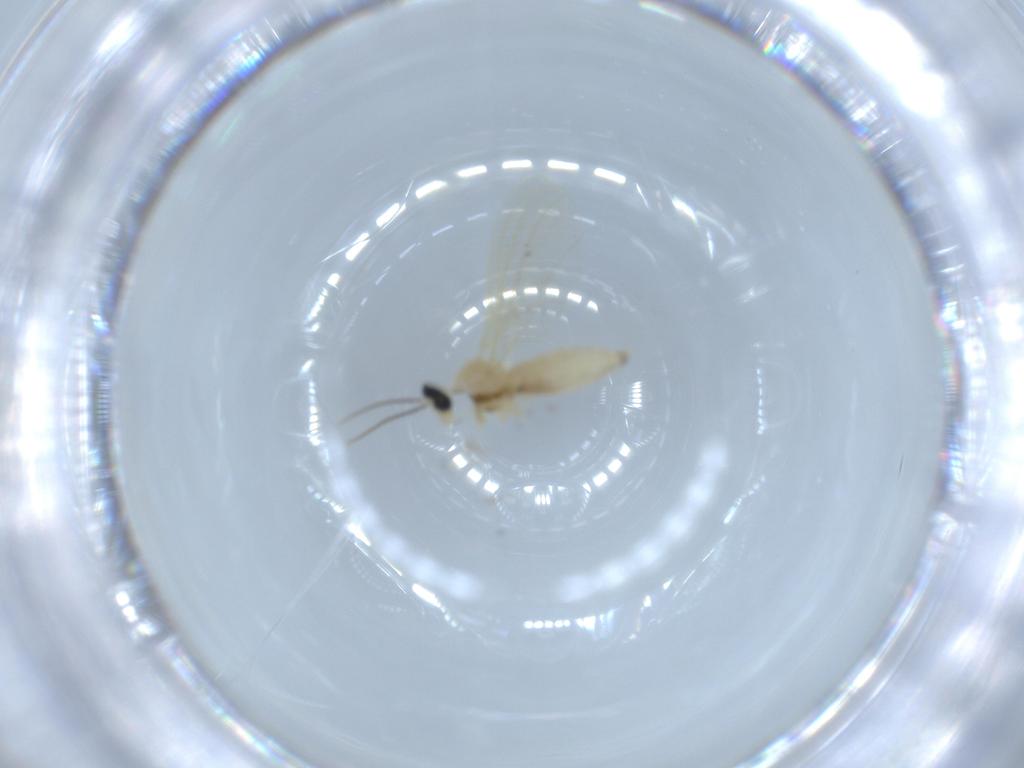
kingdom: Animalia
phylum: Arthropoda
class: Insecta
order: Diptera
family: Cecidomyiidae
